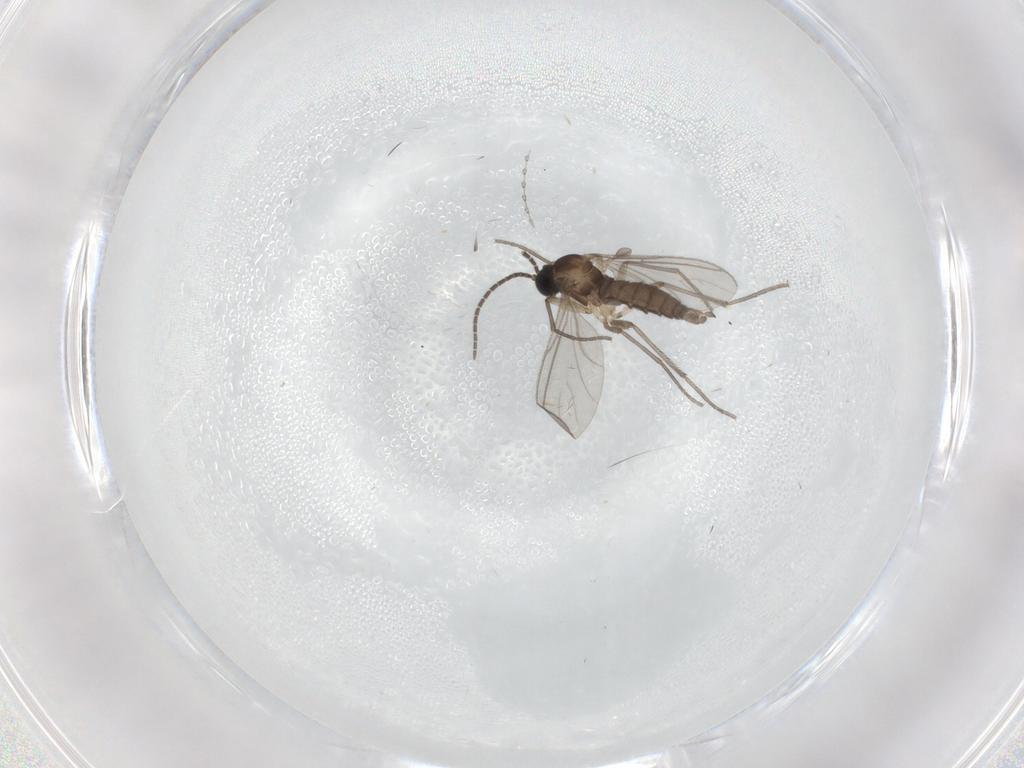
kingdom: Animalia
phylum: Arthropoda
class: Insecta
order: Diptera
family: Sciaridae
